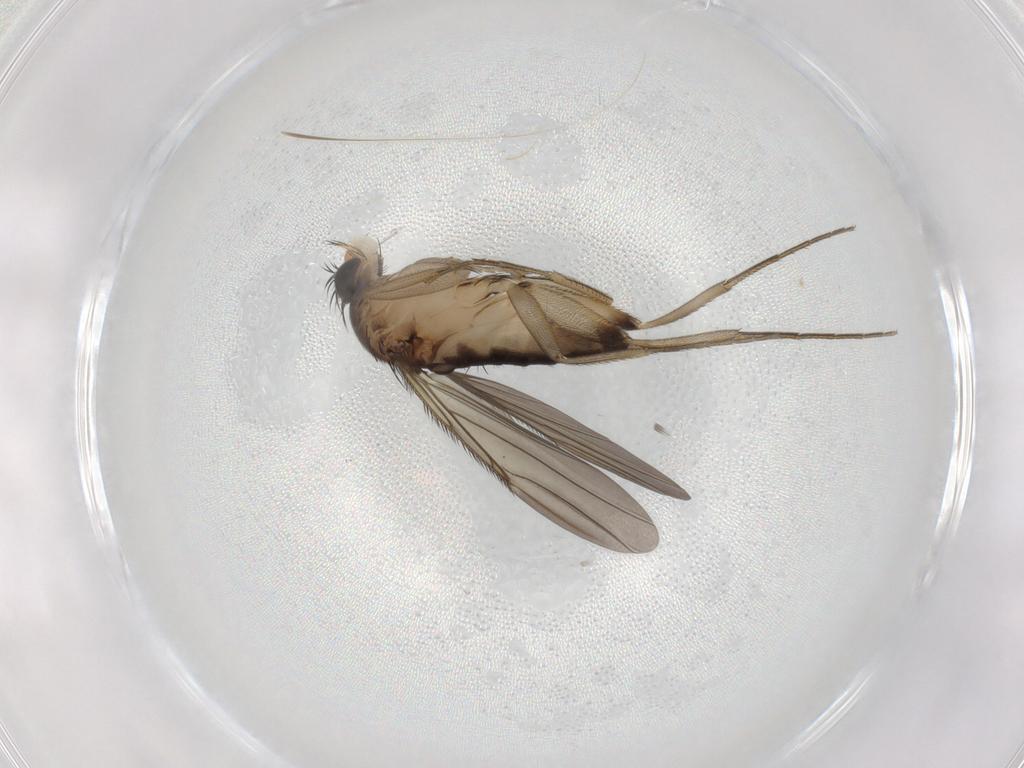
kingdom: Animalia
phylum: Arthropoda
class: Insecta
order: Diptera
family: Phoridae
